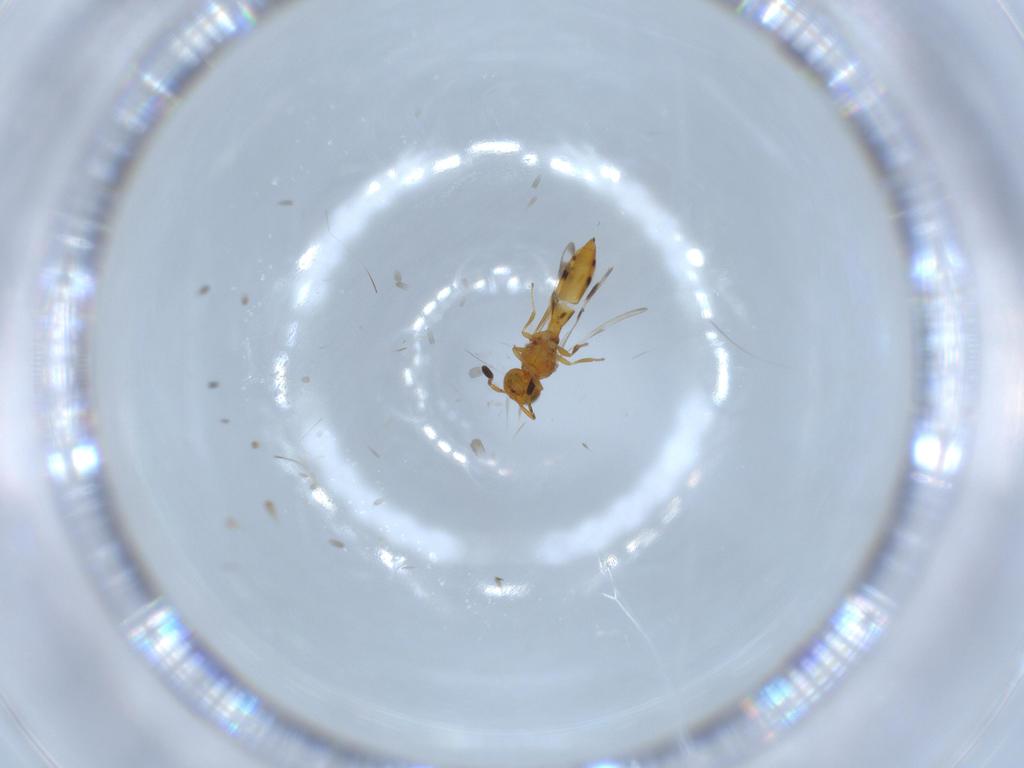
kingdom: Animalia
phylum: Arthropoda
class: Insecta
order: Hymenoptera
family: Scelionidae
